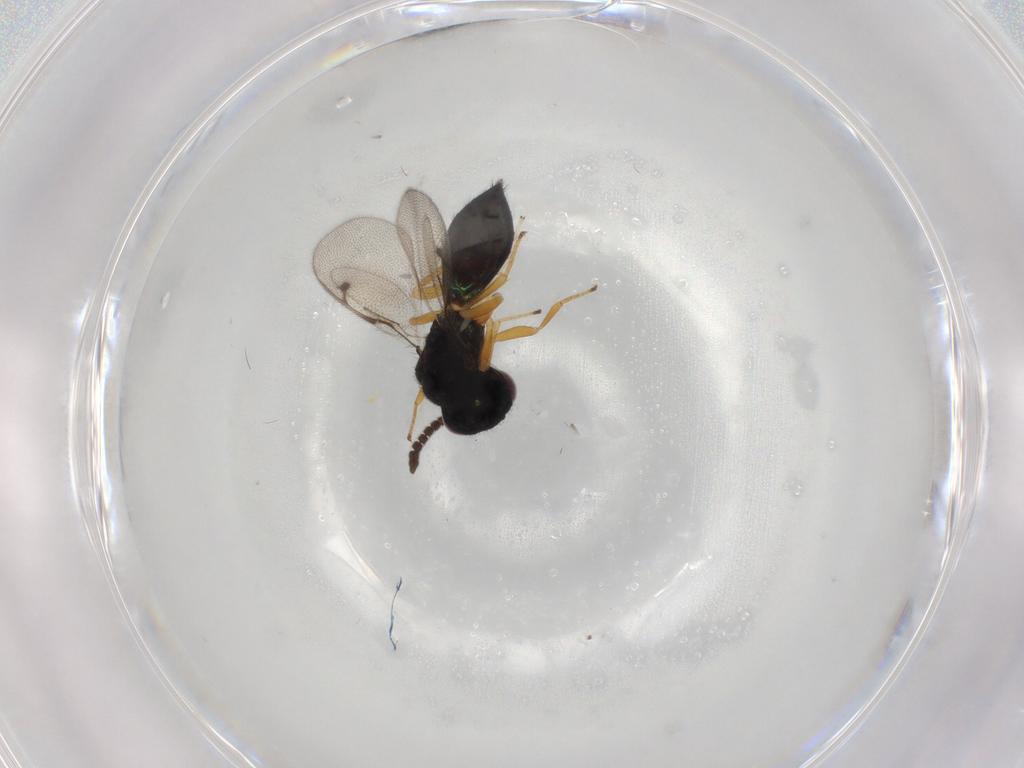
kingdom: Animalia
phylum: Arthropoda
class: Insecta
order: Hymenoptera
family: Pirenidae
